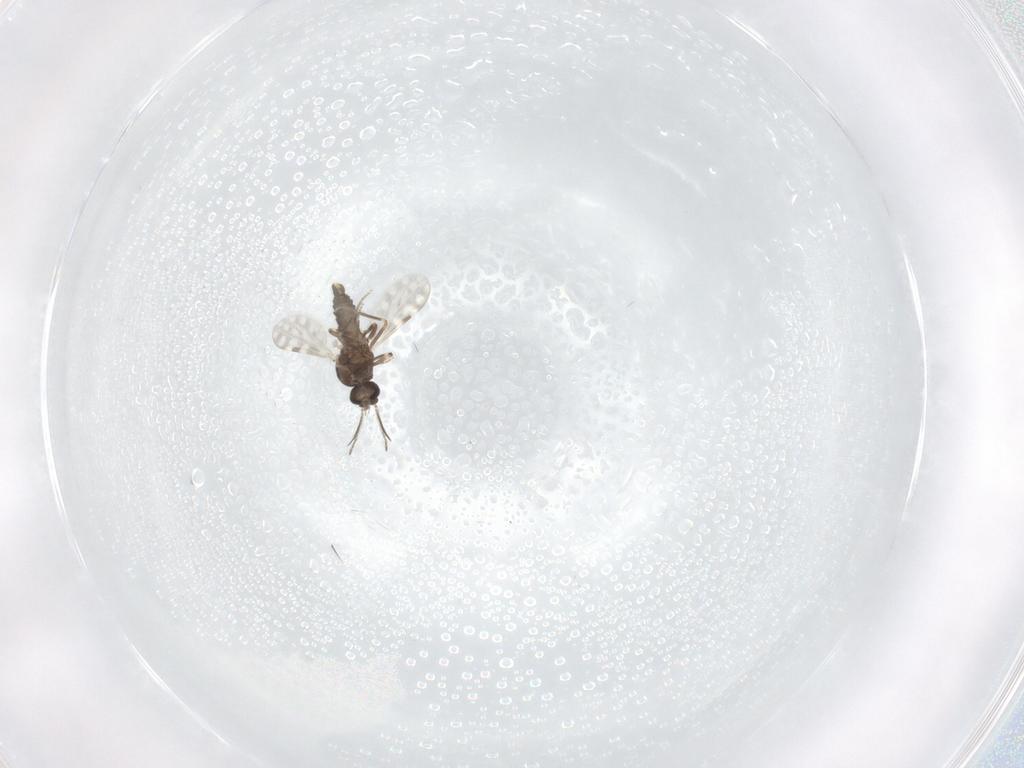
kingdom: Animalia
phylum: Arthropoda
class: Insecta
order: Diptera
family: Ceratopogonidae
